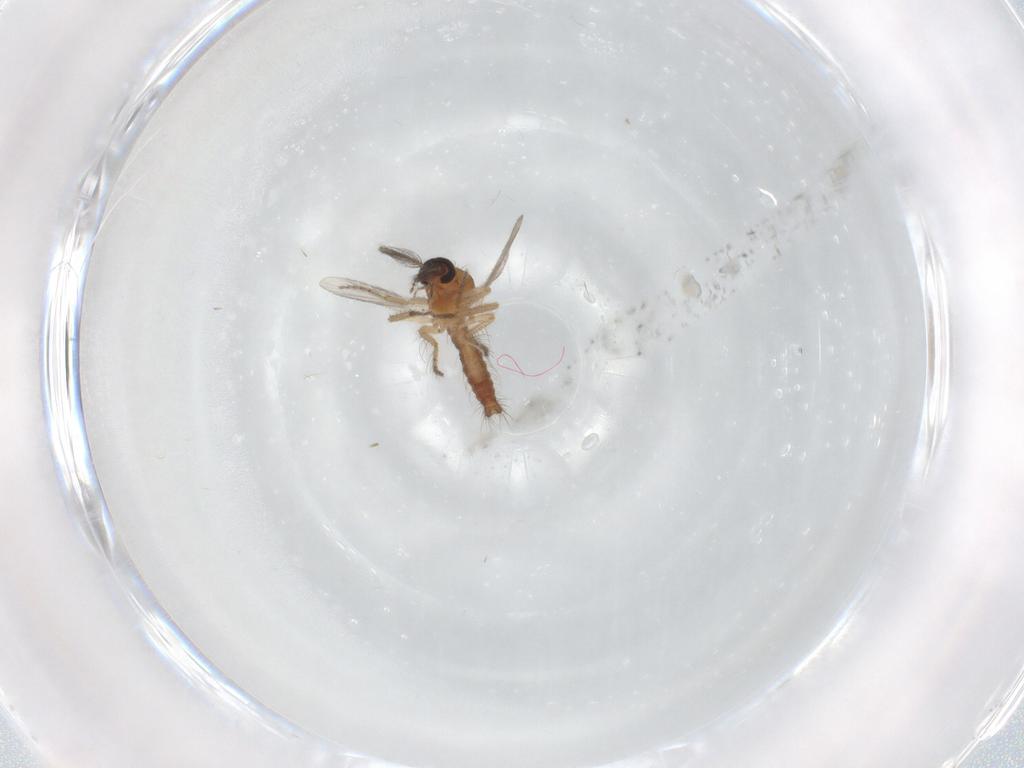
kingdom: Animalia
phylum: Arthropoda
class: Insecta
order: Diptera
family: Ceratopogonidae
